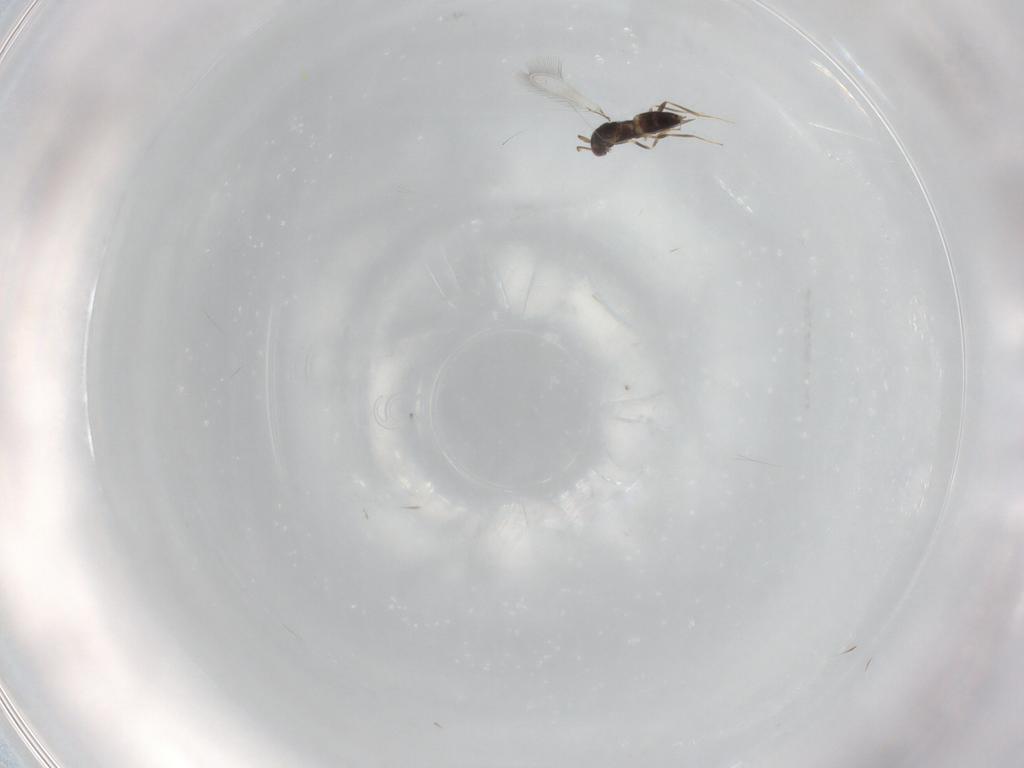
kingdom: Animalia
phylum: Arthropoda
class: Insecta
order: Hymenoptera
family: Mymaridae
